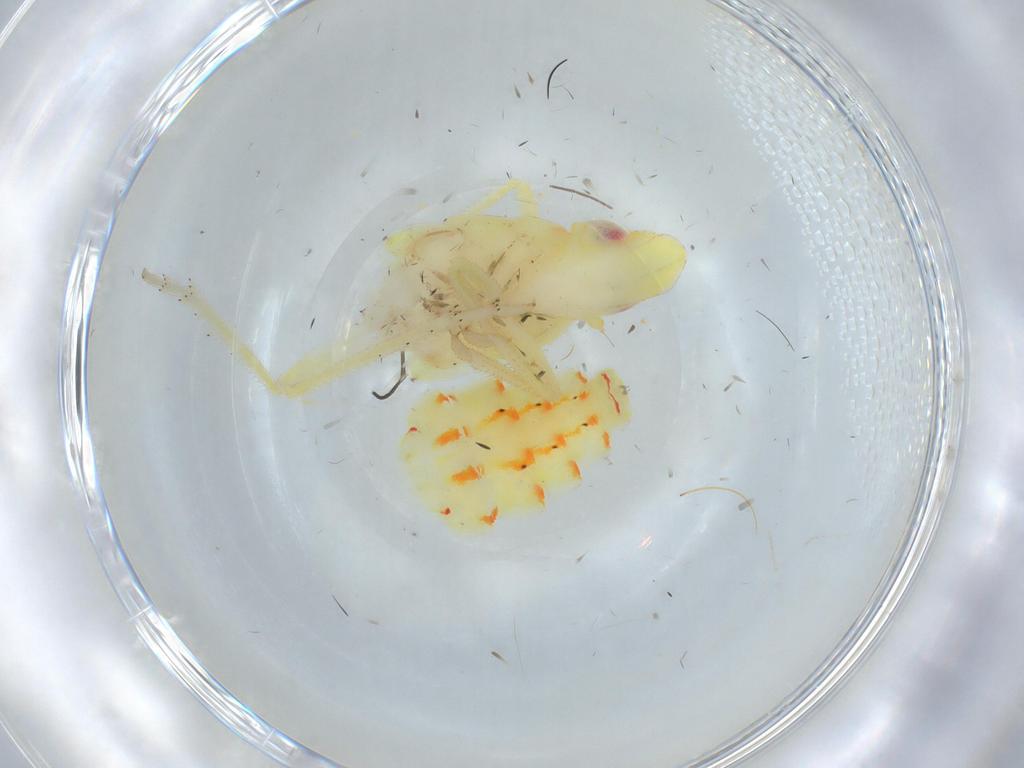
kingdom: Animalia
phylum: Arthropoda
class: Insecta
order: Hemiptera
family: Tropiduchidae
